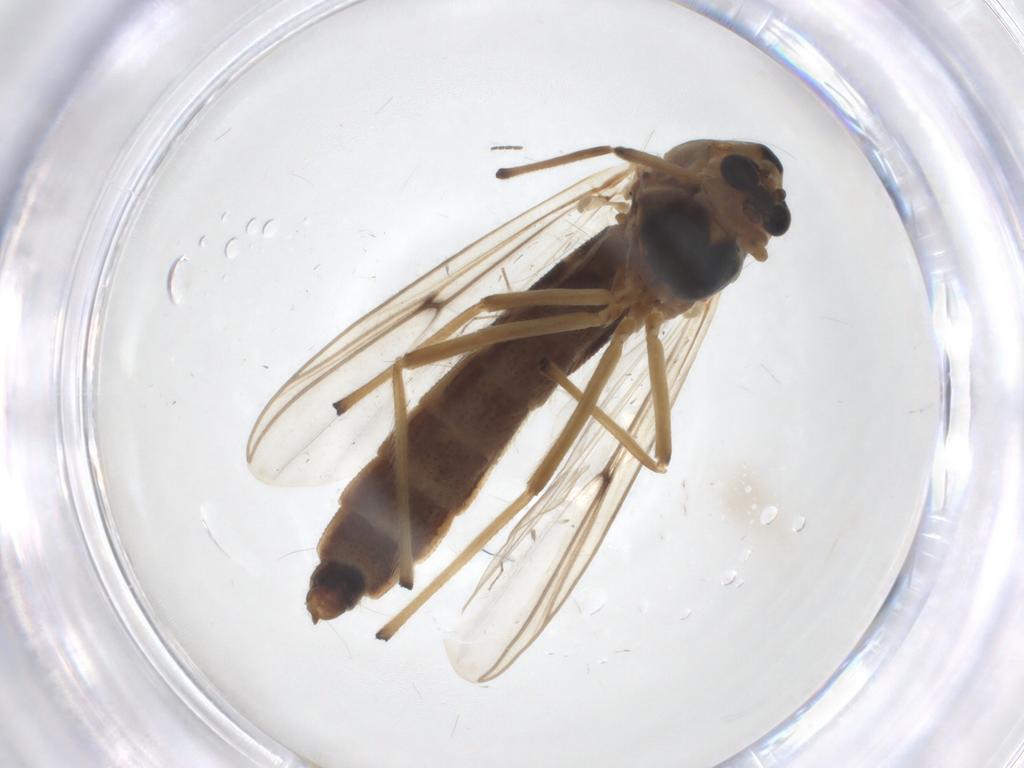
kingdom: Animalia
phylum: Arthropoda
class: Insecta
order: Diptera
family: Chironomidae
